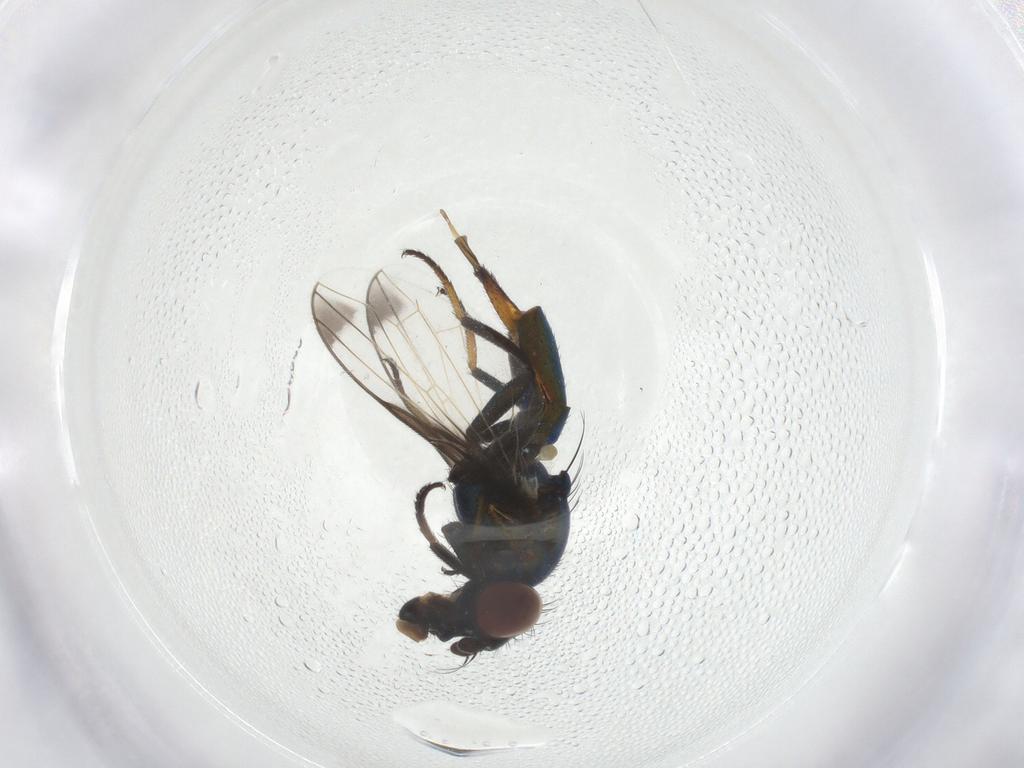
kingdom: Animalia
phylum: Arthropoda
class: Insecta
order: Diptera
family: Ulidiidae
